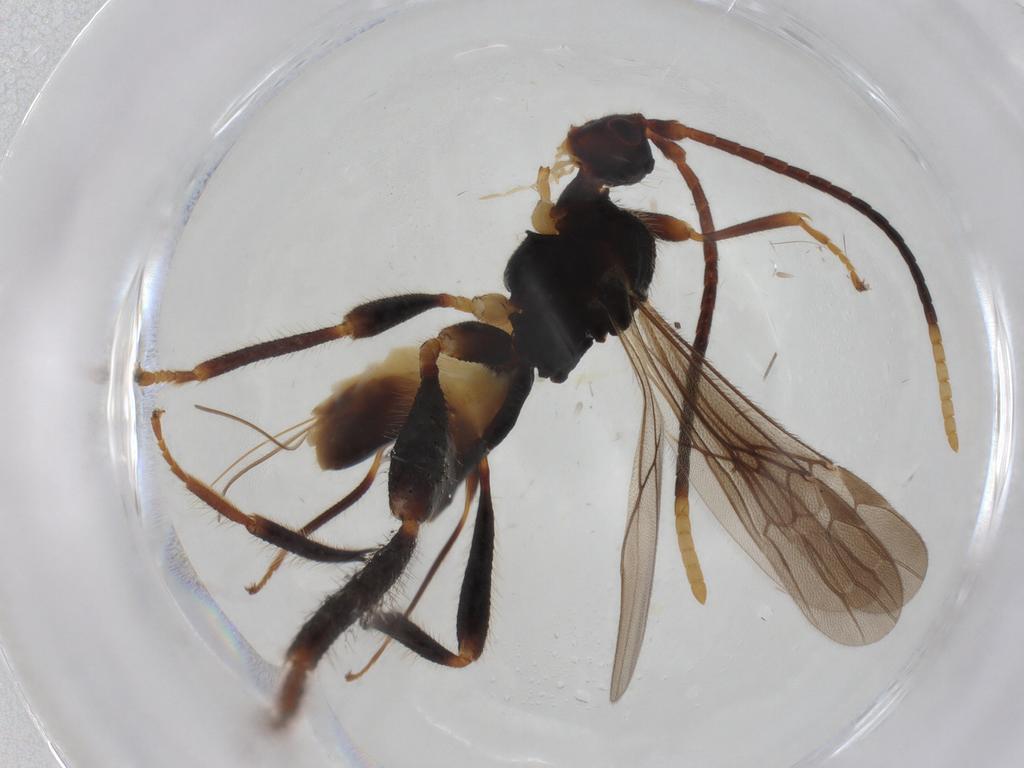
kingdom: Animalia
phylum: Arthropoda
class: Insecta
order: Hymenoptera
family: Braconidae
